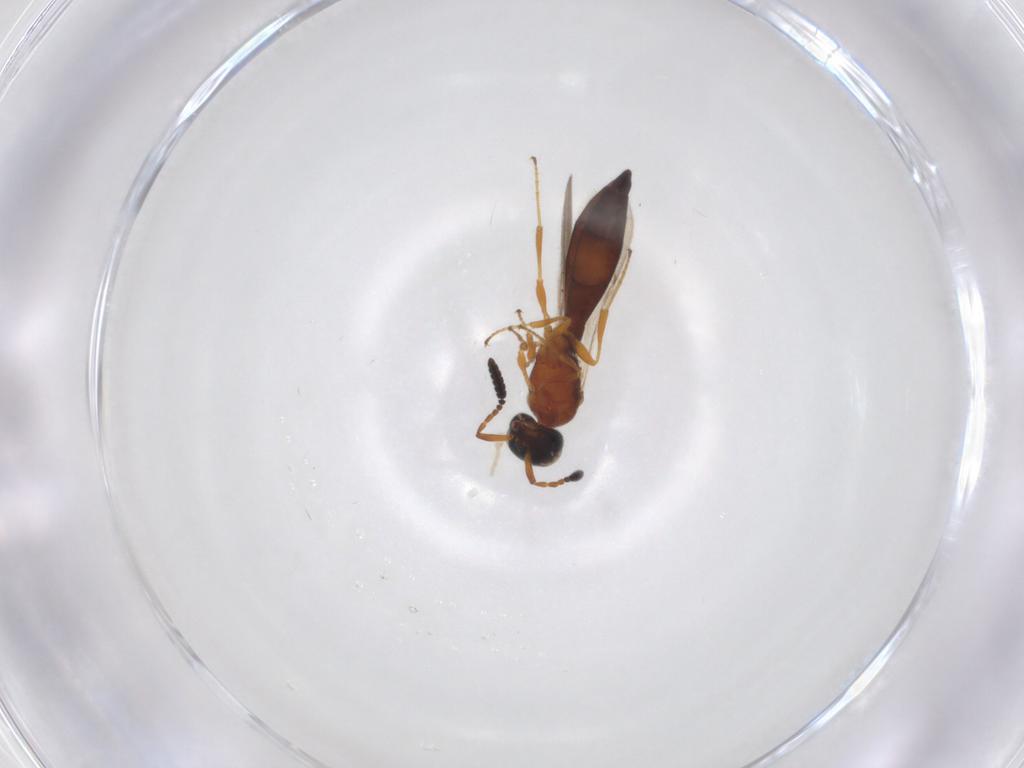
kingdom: Animalia
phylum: Arthropoda
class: Insecta
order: Hymenoptera
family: Scelionidae
